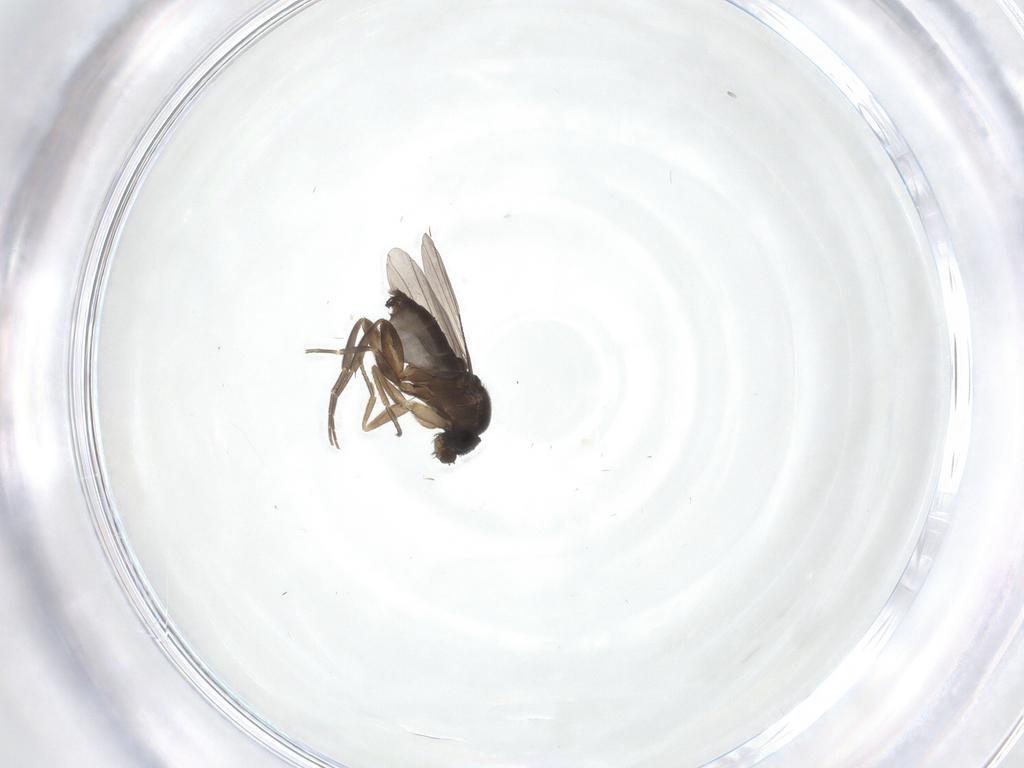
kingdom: Animalia
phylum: Arthropoda
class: Insecta
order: Diptera
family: Phoridae
